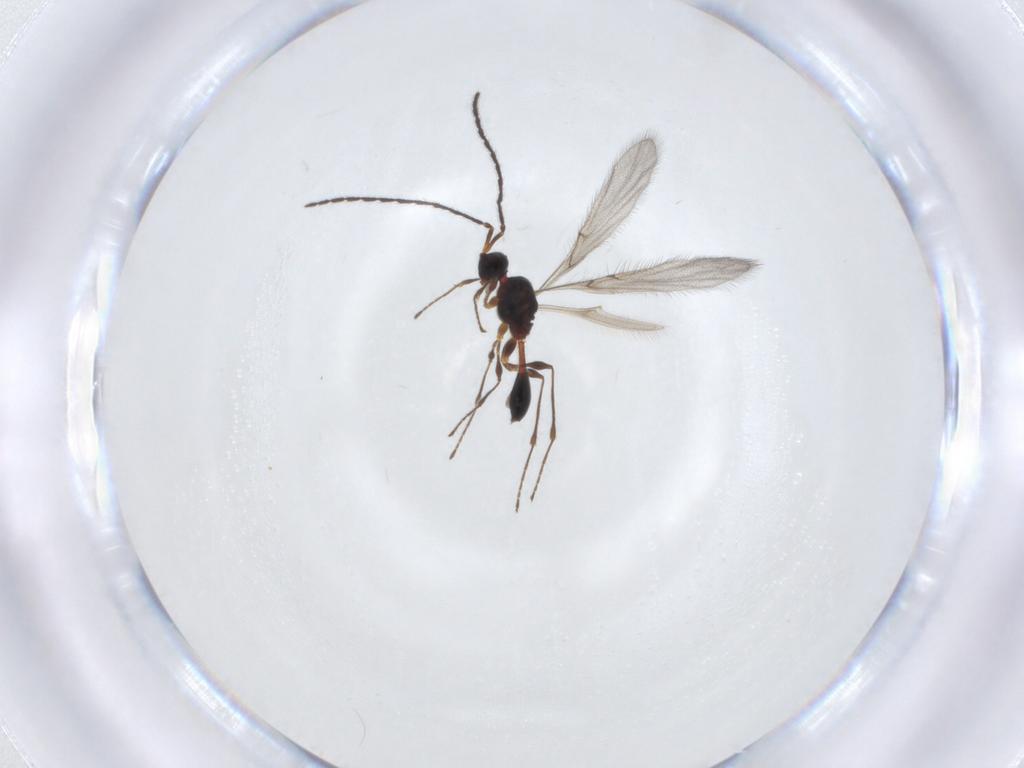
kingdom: Animalia
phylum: Arthropoda
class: Insecta
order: Hymenoptera
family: Diapriidae
